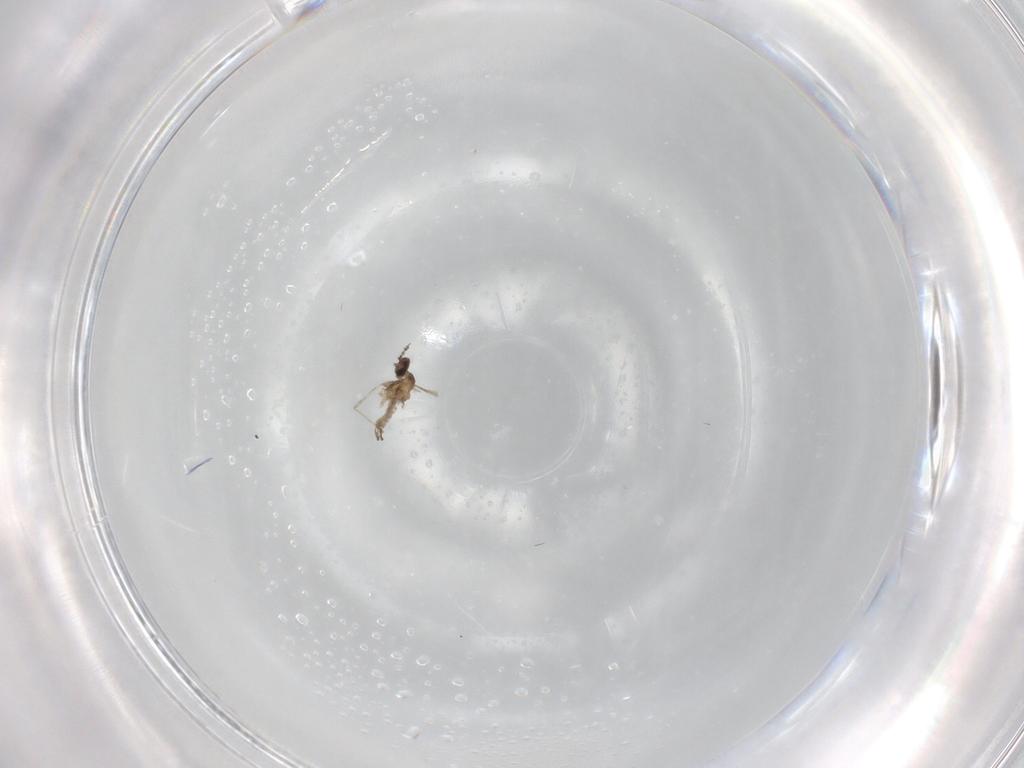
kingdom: Animalia
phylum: Arthropoda
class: Insecta
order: Diptera
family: Cecidomyiidae
